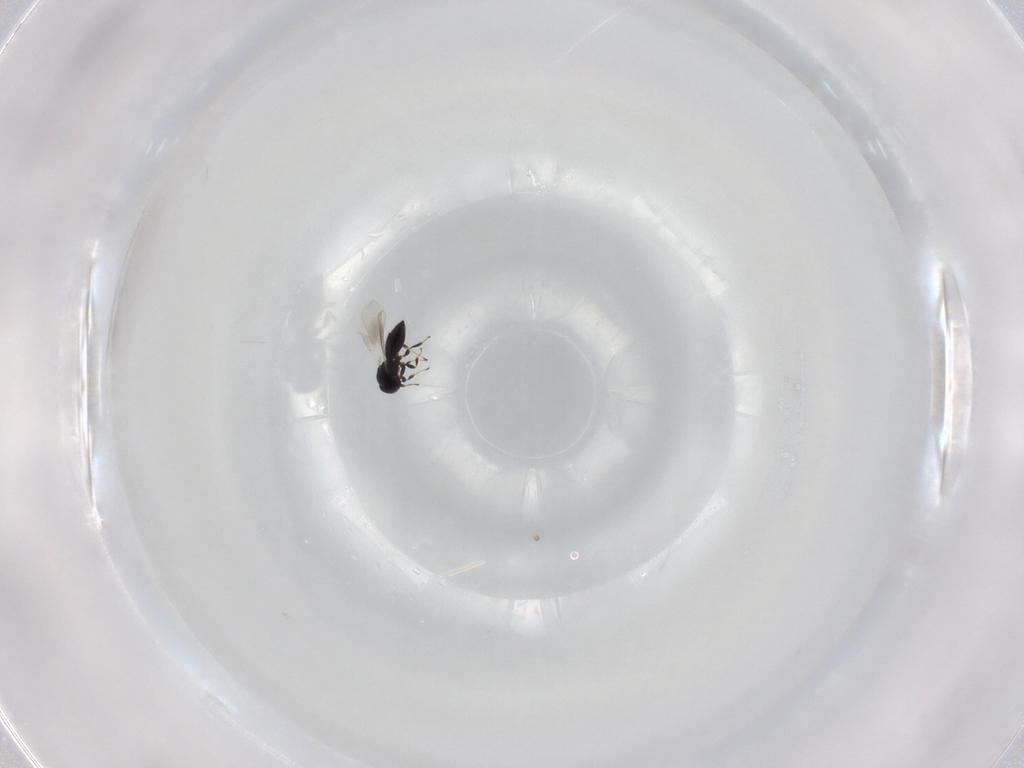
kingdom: Animalia
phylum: Arthropoda
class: Insecta
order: Hymenoptera
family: Platygastridae
